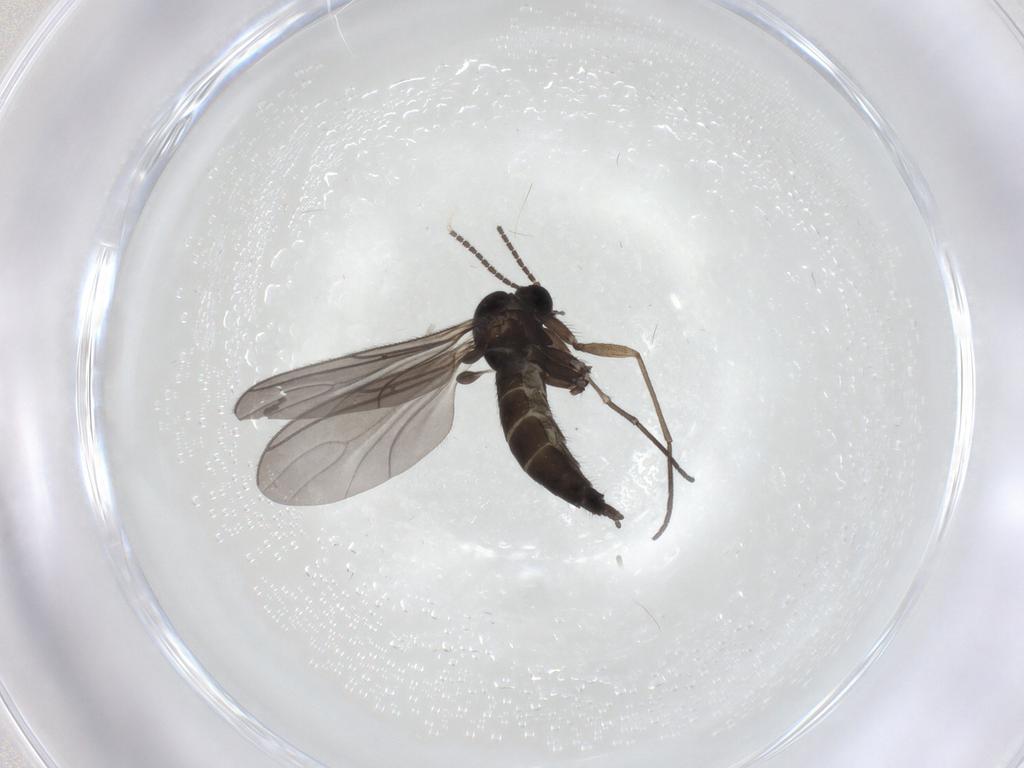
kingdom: Animalia
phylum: Arthropoda
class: Insecta
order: Diptera
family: Sciaridae
